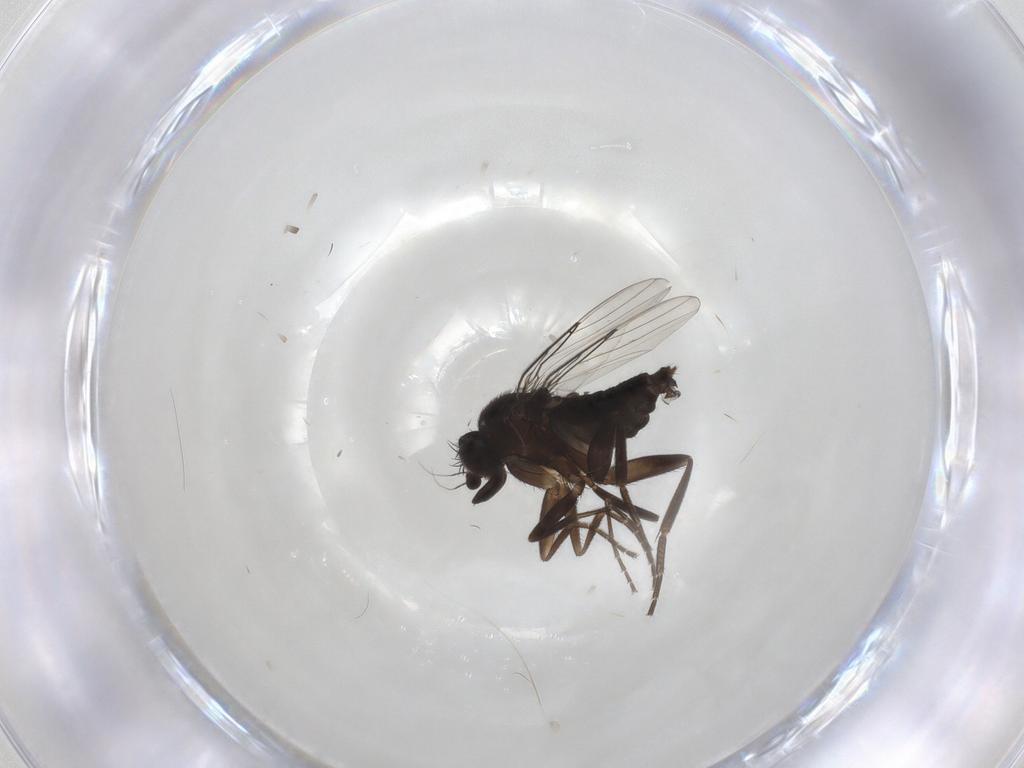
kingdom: Animalia
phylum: Arthropoda
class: Insecta
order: Diptera
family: Phoridae
